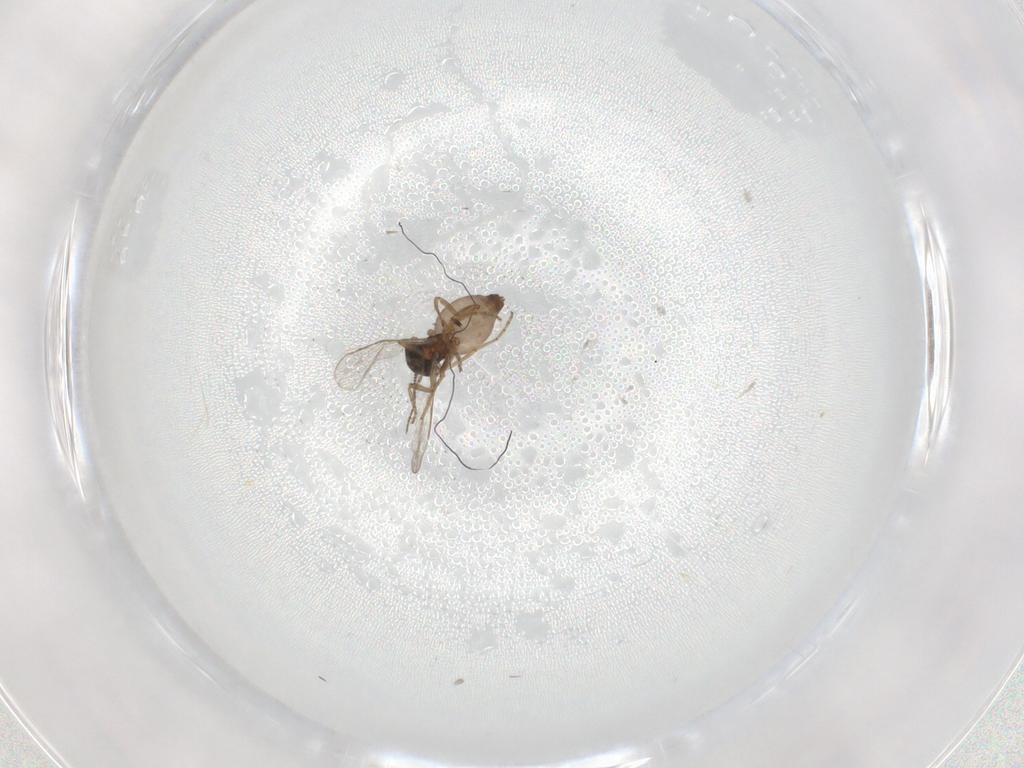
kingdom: Animalia
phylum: Arthropoda
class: Insecta
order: Diptera
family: Ceratopogonidae
